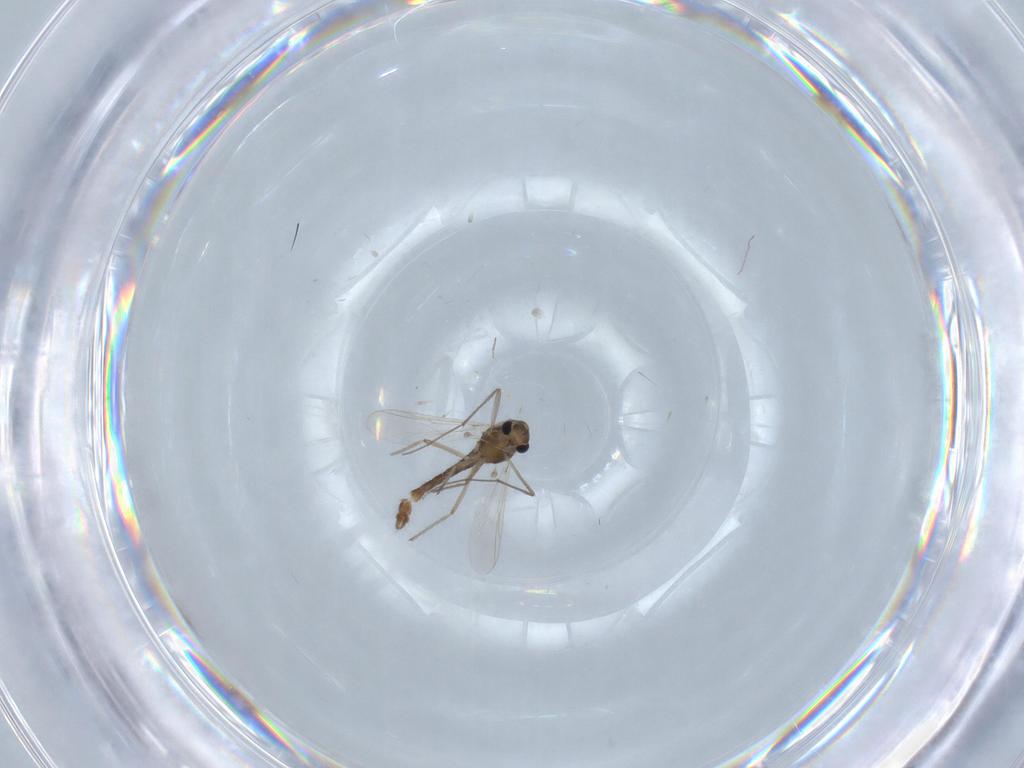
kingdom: Animalia
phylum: Arthropoda
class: Insecta
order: Diptera
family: Chironomidae
